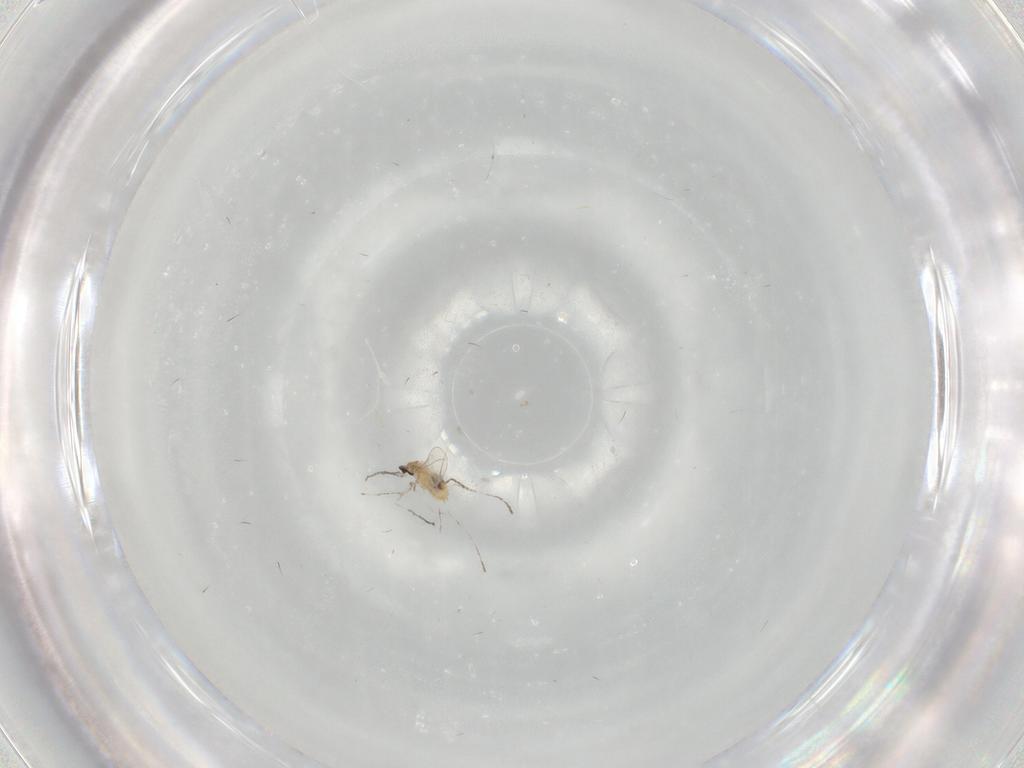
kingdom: Animalia
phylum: Arthropoda
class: Insecta
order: Diptera
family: Cecidomyiidae
